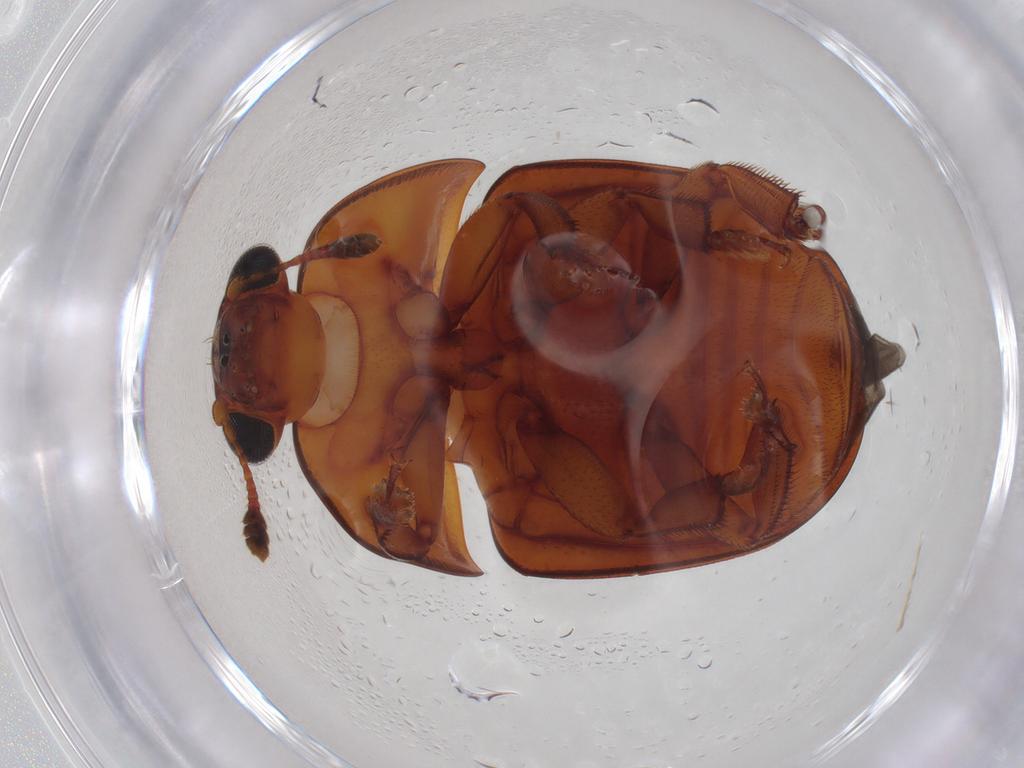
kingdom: Animalia
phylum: Arthropoda
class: Insecta
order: Coleoptera
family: Nitidulidae
